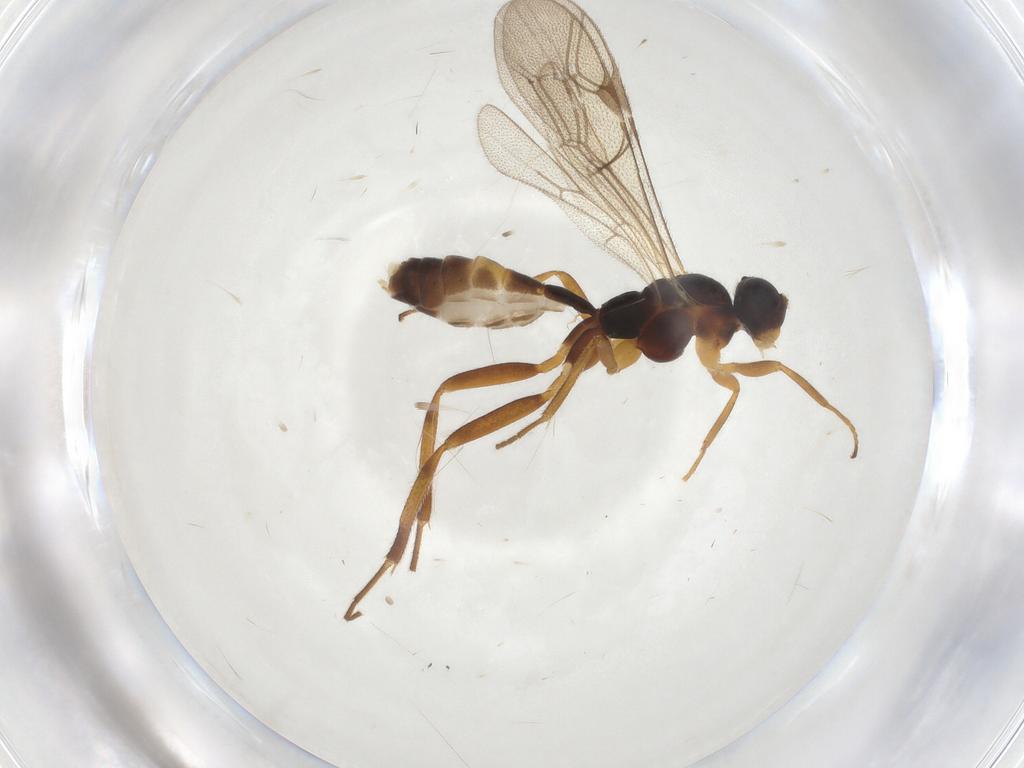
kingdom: Animalia
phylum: Arthropoda
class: Insecta
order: Hymenoptera
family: Ichneumonidae
